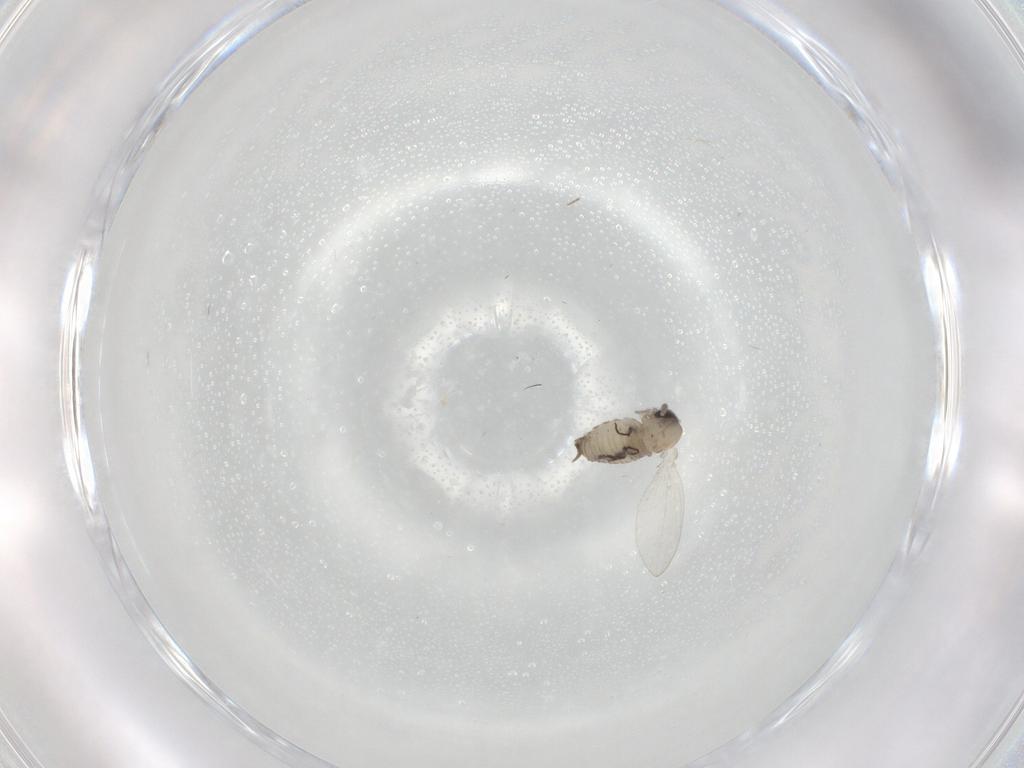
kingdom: Animalia
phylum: Arthropoda
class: Insecta
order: Diptera
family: Psychodidae
